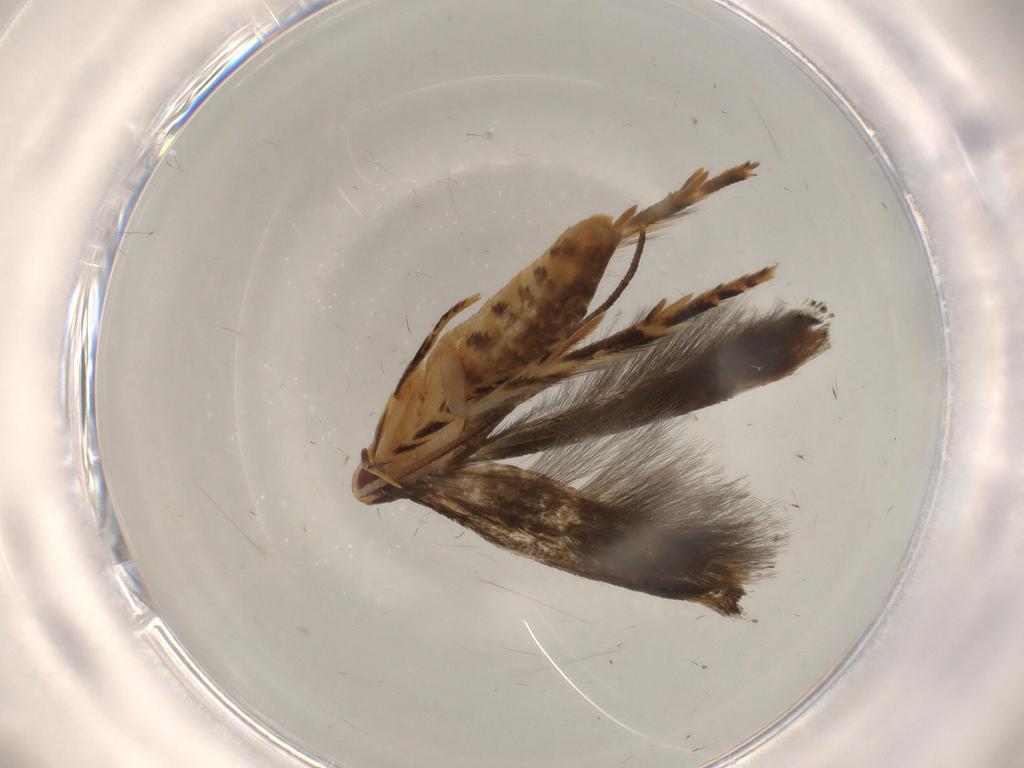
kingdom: Animalia
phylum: Arthropoda
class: Insecta
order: Lepidoptera
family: Momphidae
